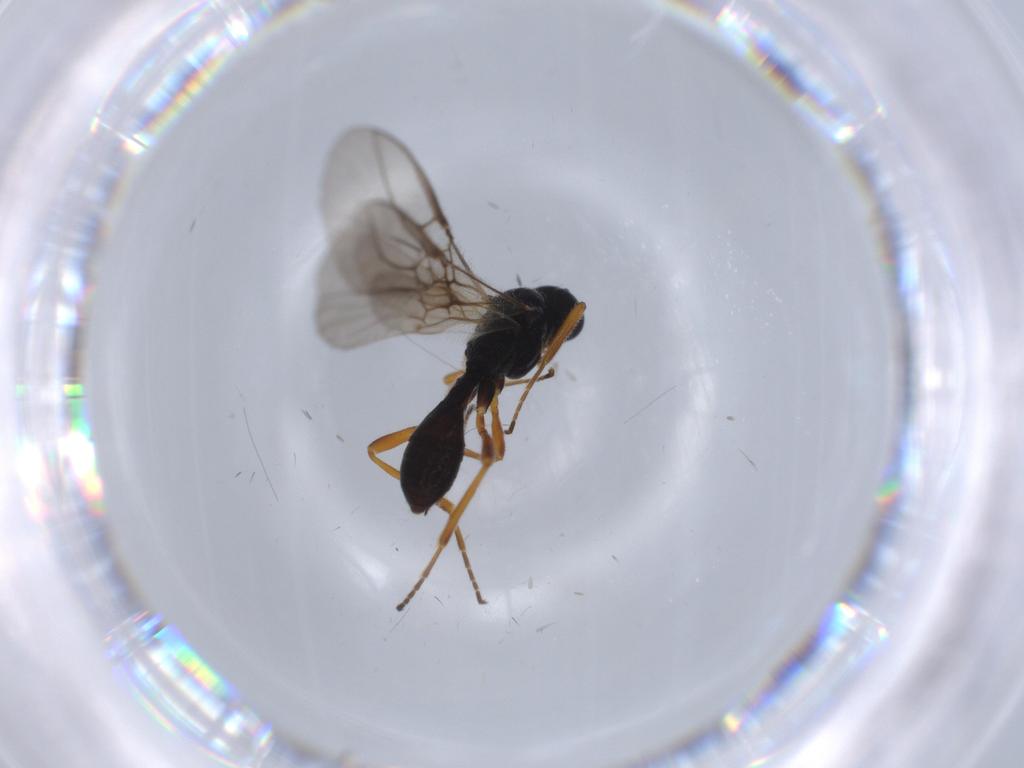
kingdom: Animalia
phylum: Arthropoda
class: Insecta
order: Hymenoptera
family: Braconidae
